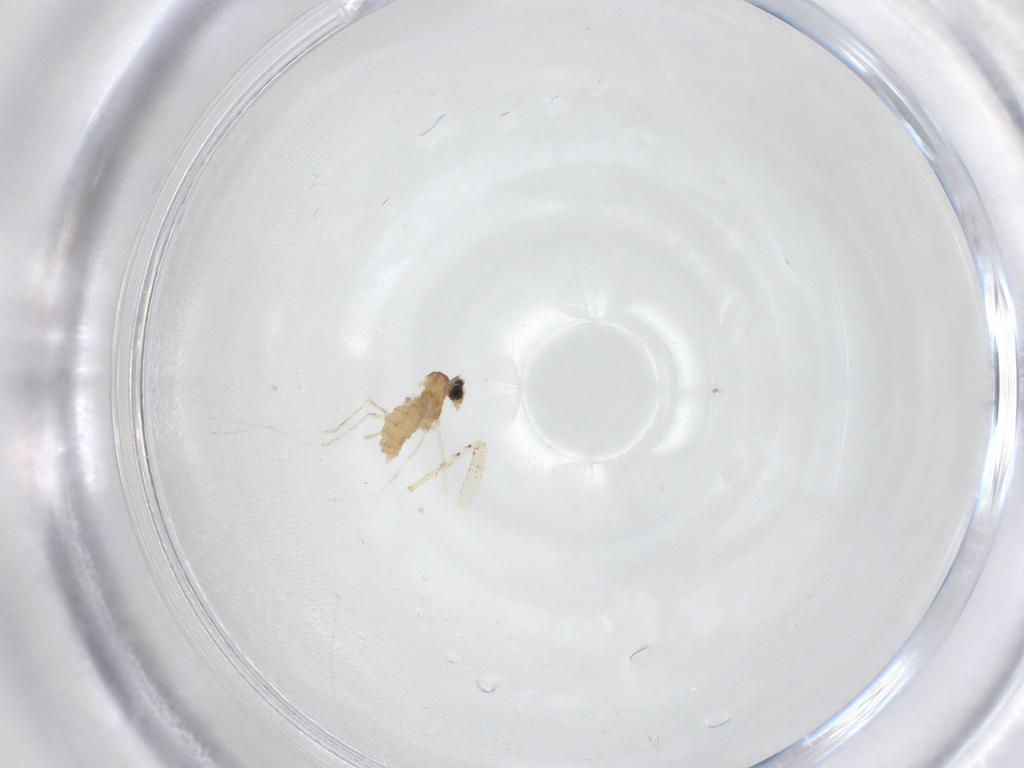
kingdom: Animalia
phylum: Arthropoda
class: Insecta
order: Diptera
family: Cecidomyiidae
